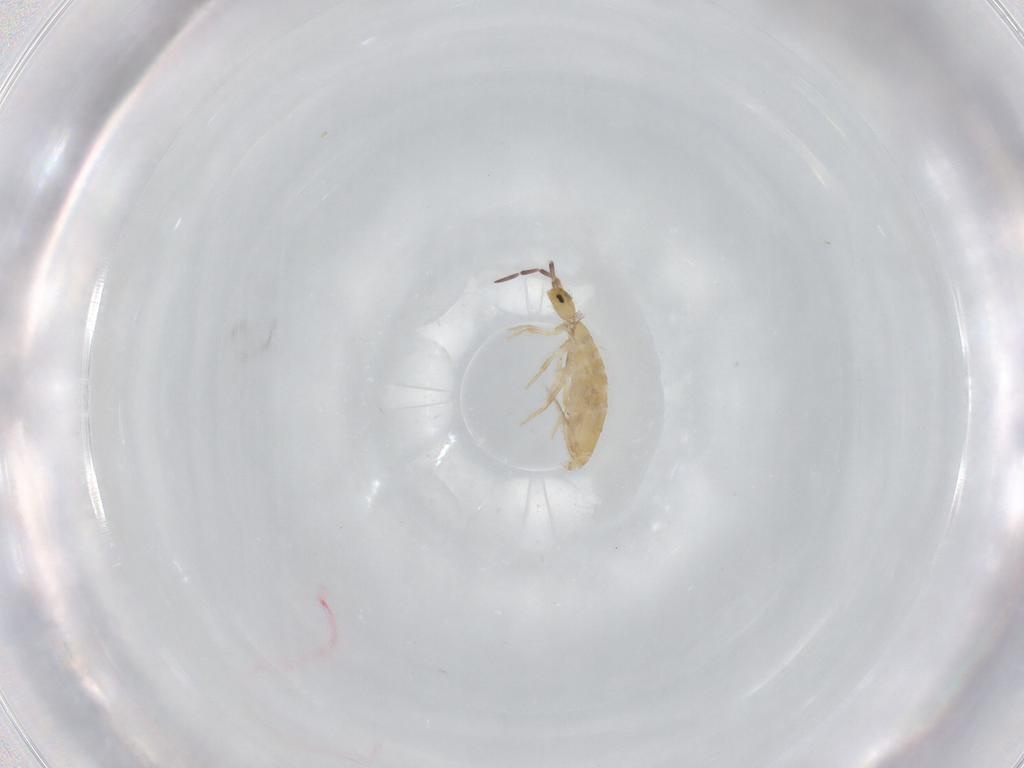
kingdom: Animalia
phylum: Arthropoda
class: Collembola
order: Entomobryomorpha
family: Entomobryidae
